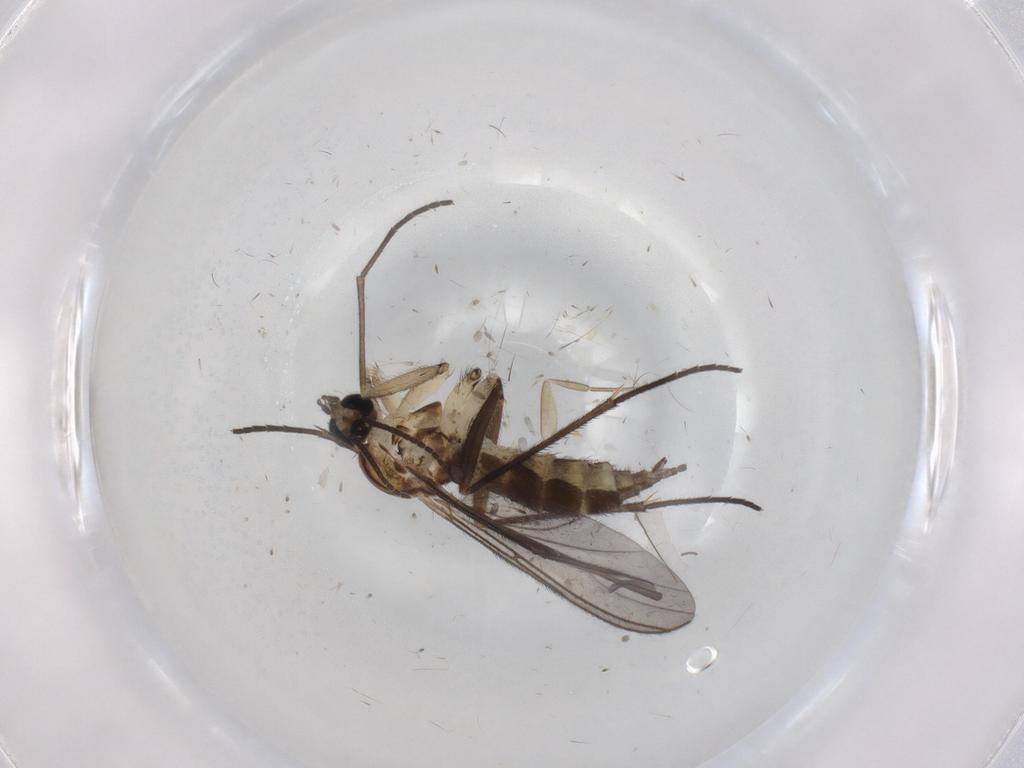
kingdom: Animalia
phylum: Arthropoda
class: Insecta
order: Diptera
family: Sciaridae
